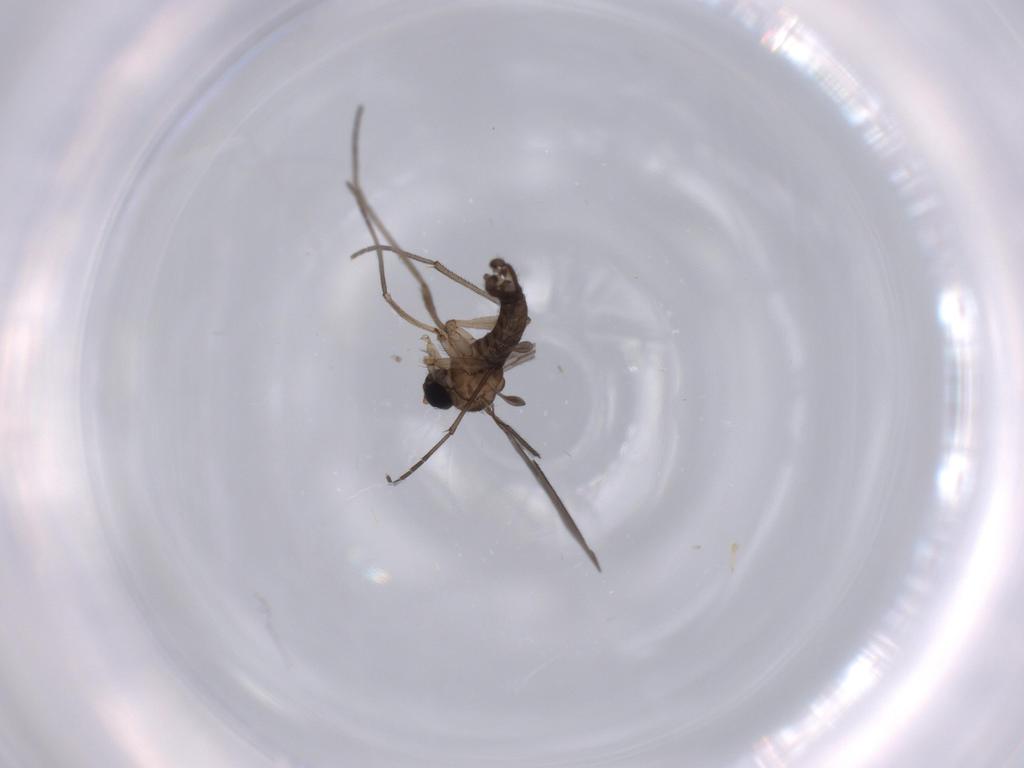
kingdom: Animalia
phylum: Arthropoda
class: Insecta
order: Diptera
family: Sciaridae
